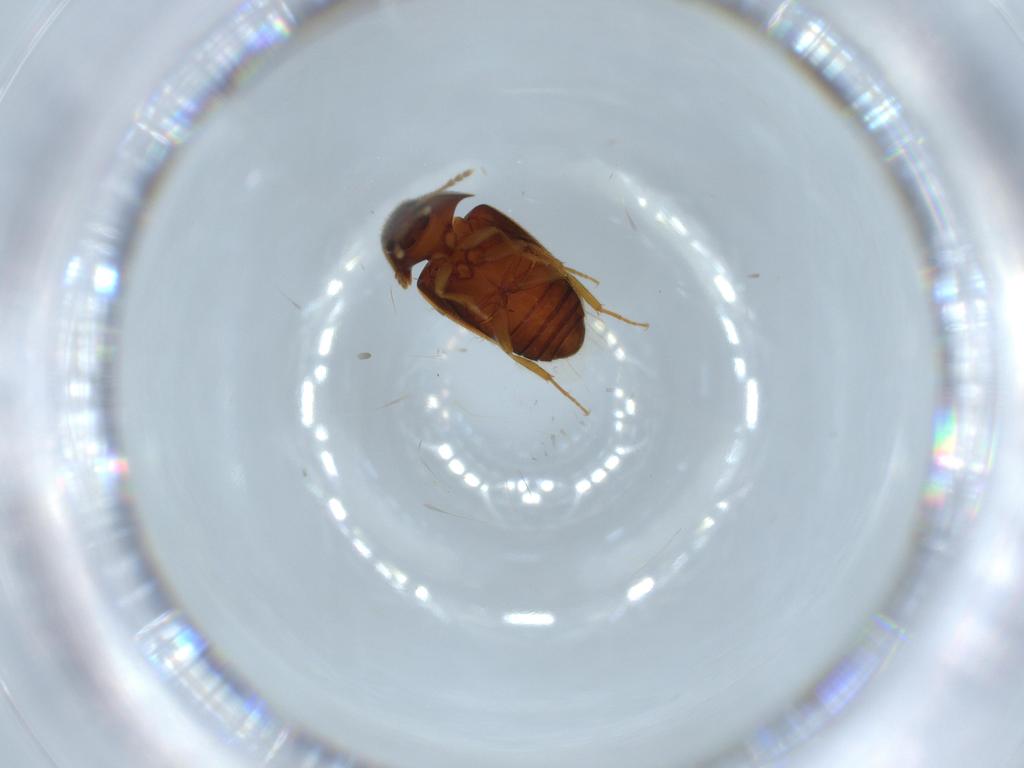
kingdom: Animalia
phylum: Arthropoda
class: Insecta
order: Coleoptera
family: Mycetophagidae
